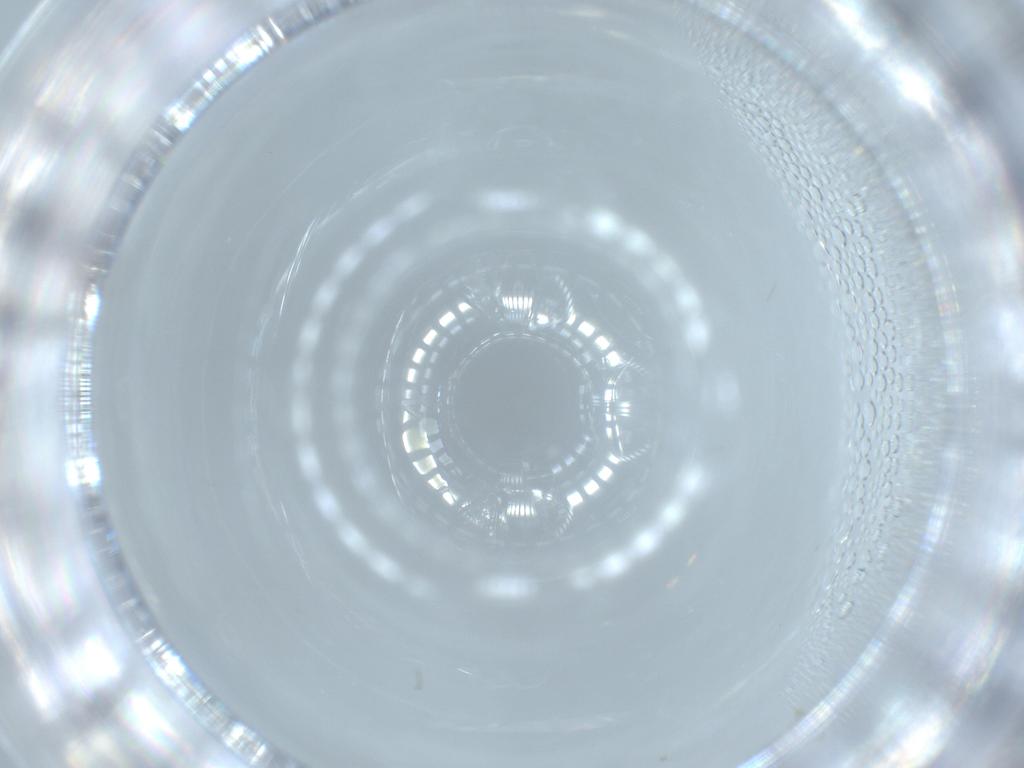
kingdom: Animalia
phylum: Arthropoda
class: Insecta
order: Diptera
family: Cecidomyiidae
